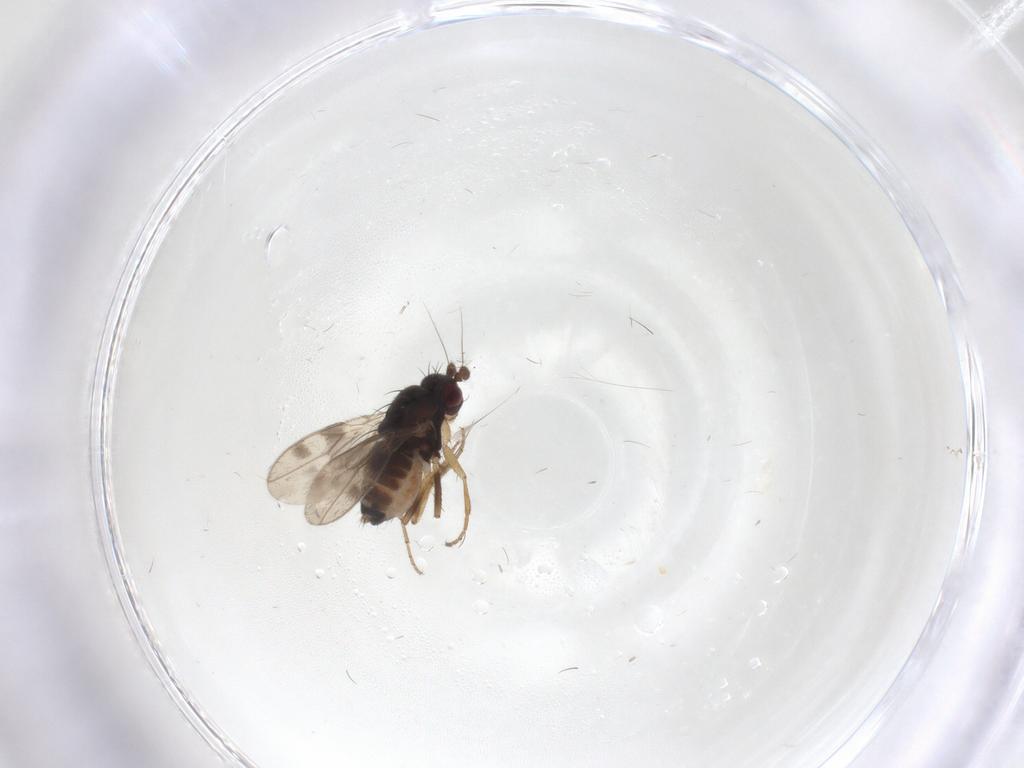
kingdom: Animalia
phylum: Arthropoda
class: Insecta
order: Diptera
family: Sphaeroceridae
